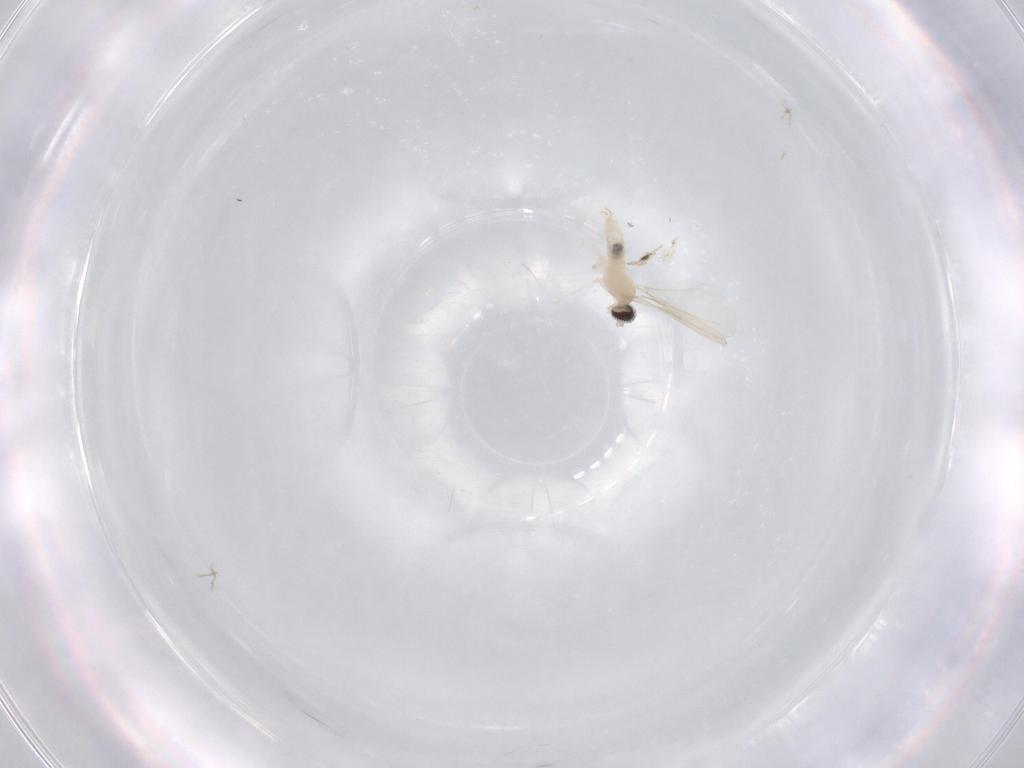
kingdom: Animalia
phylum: Arthropoda
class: Insecta
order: Diptera
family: Cecidomyiidae
